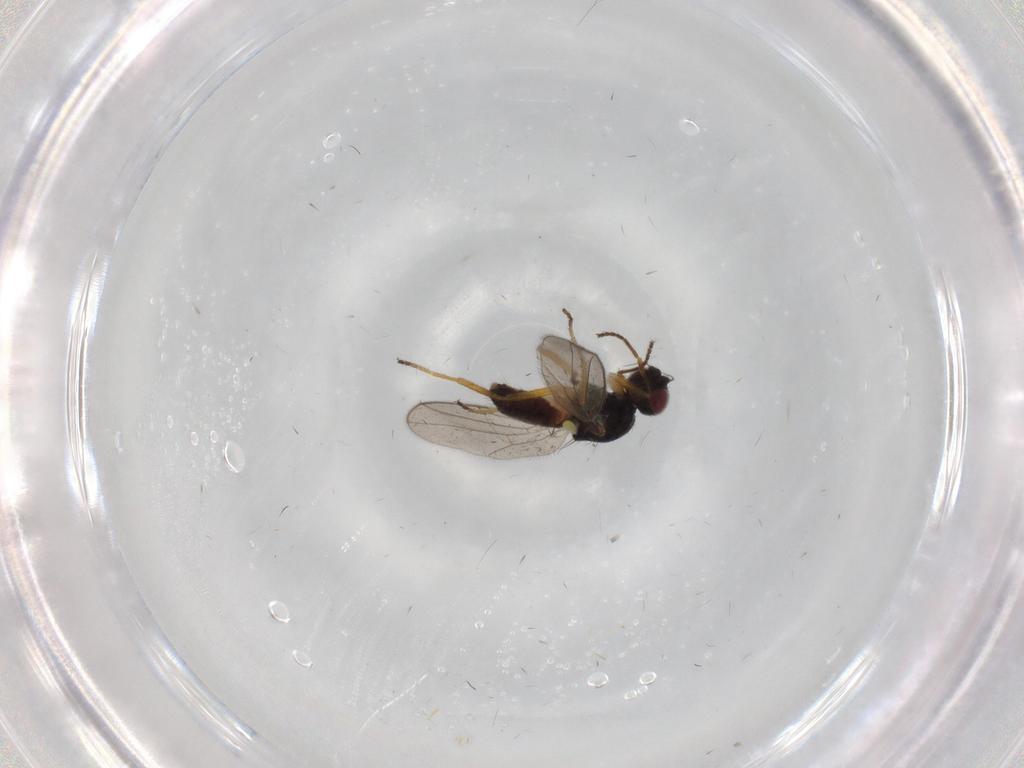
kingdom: Animalia
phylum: Arthropoda
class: Insecta
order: Diptera
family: Chloropidae
